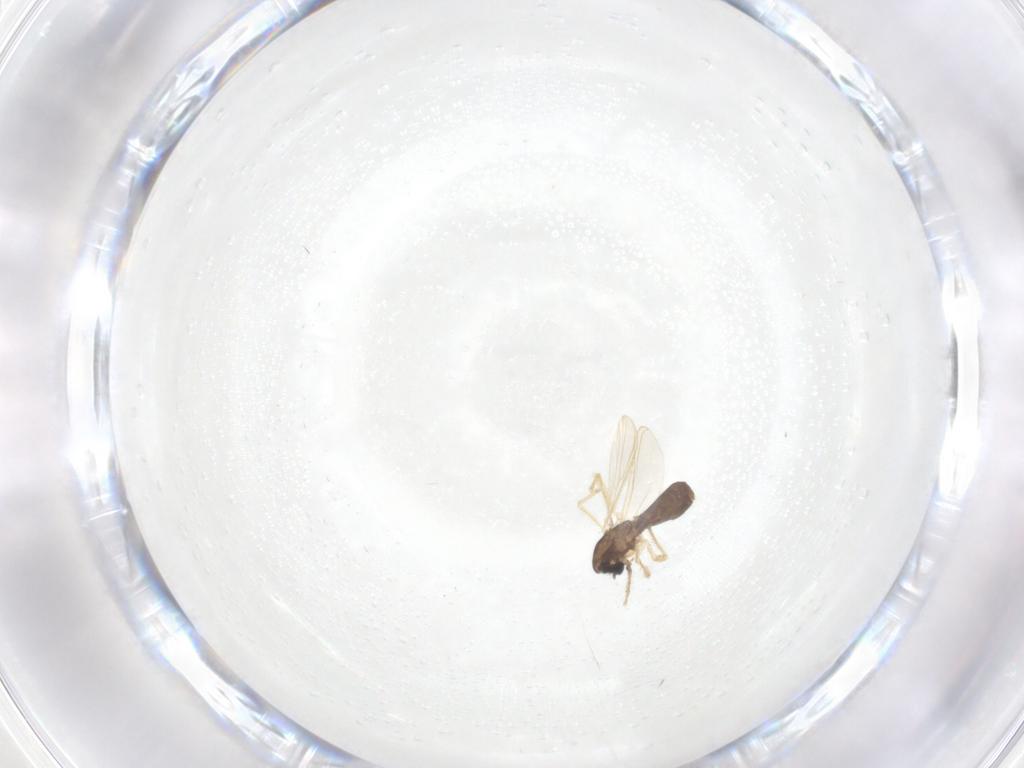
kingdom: Animalia
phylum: Arthropoda
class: Insecta
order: Diptera
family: Chironomidae
